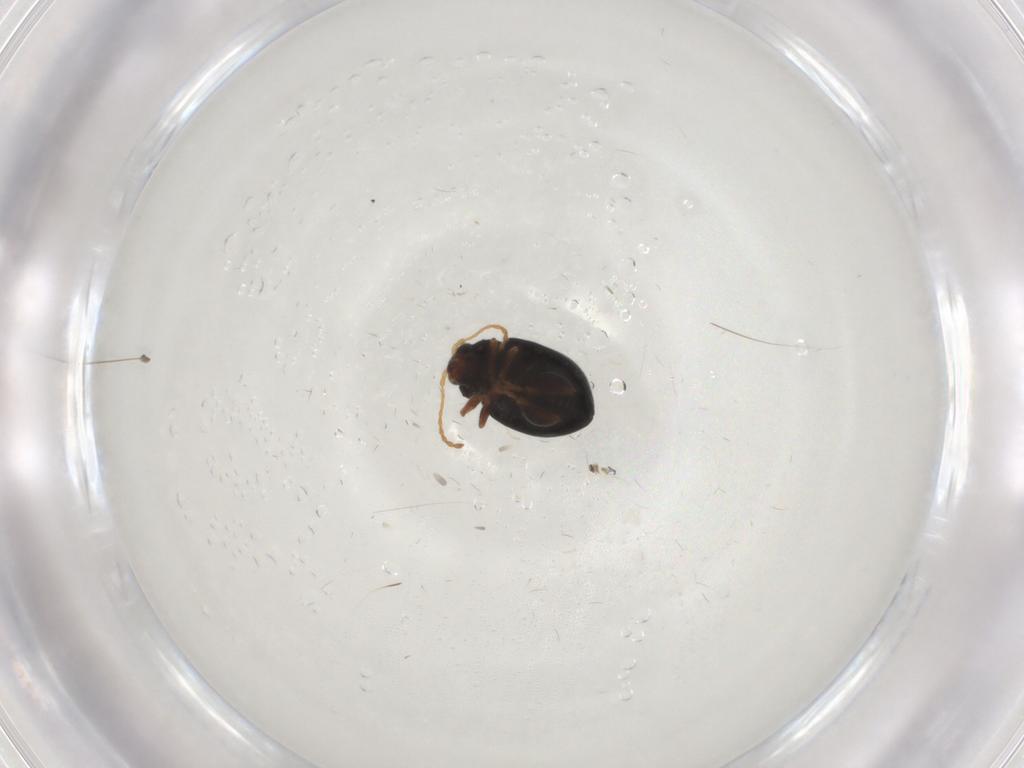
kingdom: Animalia
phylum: Arthropoda
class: Insecta
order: Coleoptera
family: Chrysomelidae
